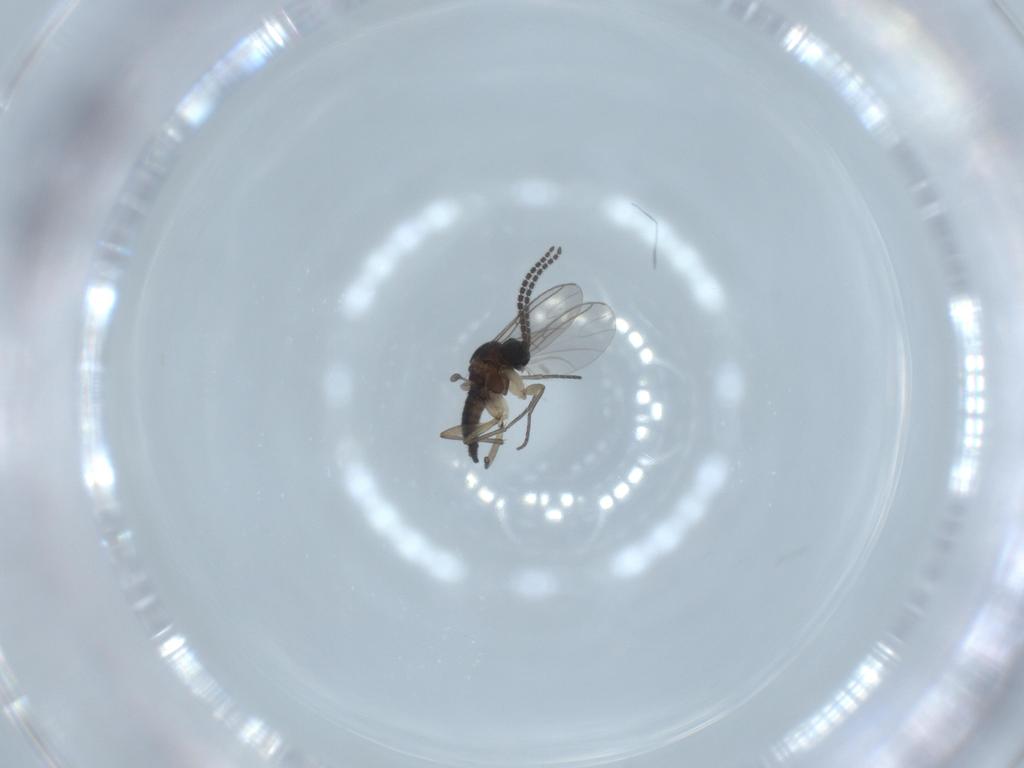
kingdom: Animalia
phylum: Arthropoda
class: Insecta
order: Diptera
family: Sciaridae
